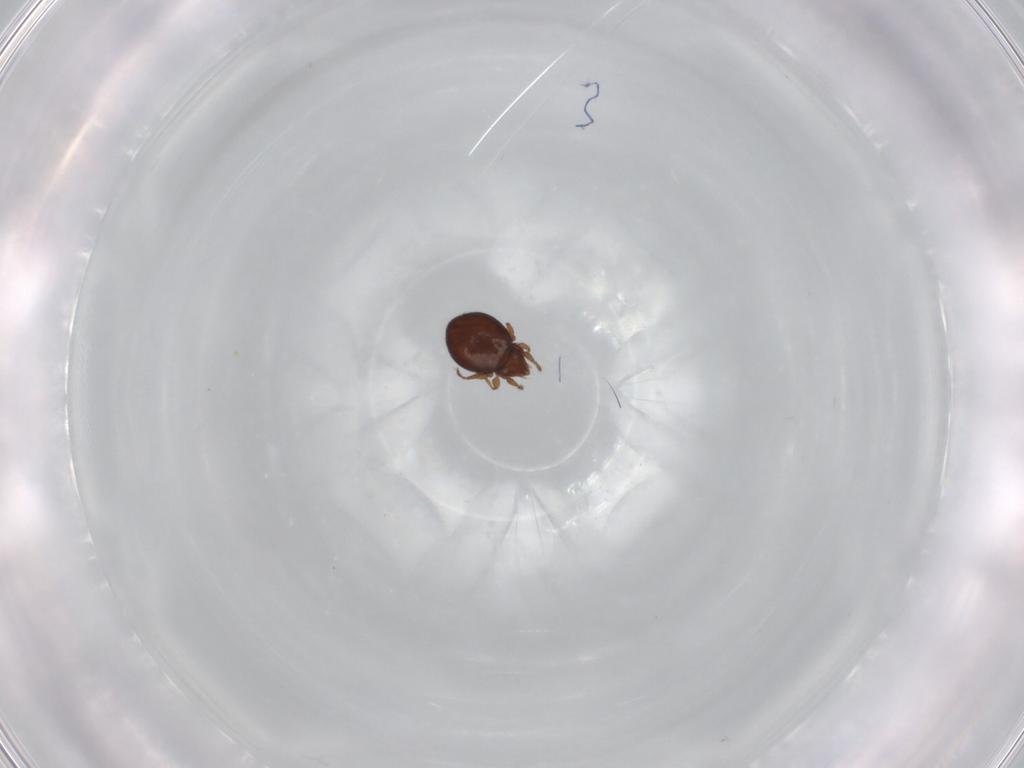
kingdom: Animalia
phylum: Arthropoda
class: Arachnida
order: Sarcoptiformes
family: Oribatulidae
